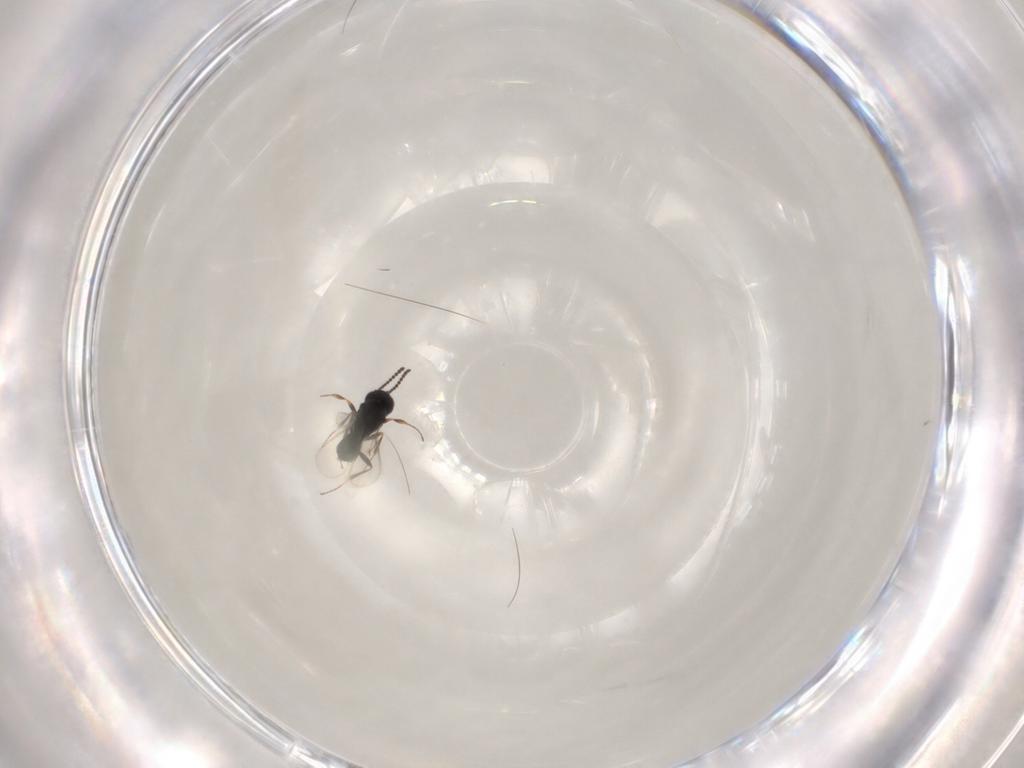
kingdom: Animalia
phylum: Arthropoda
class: Insecta
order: Hymenoptera
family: Scelionidae
